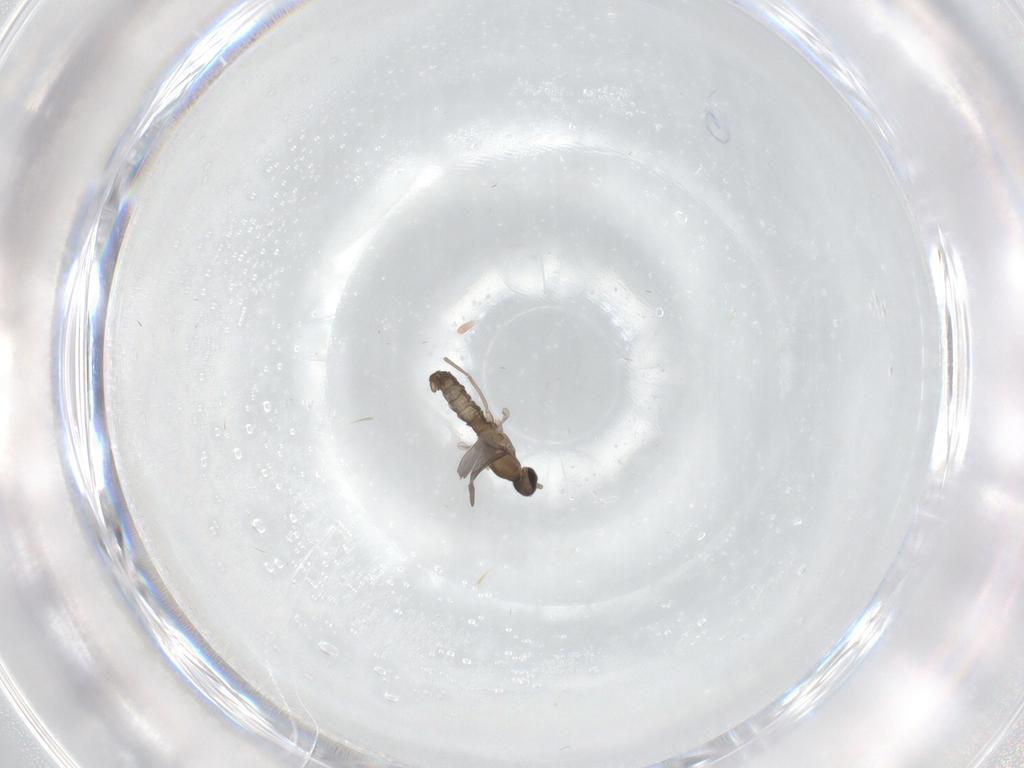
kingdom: Animalia
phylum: Arthropoda
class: Insecta
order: Diptera
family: Cecidomyiidae
